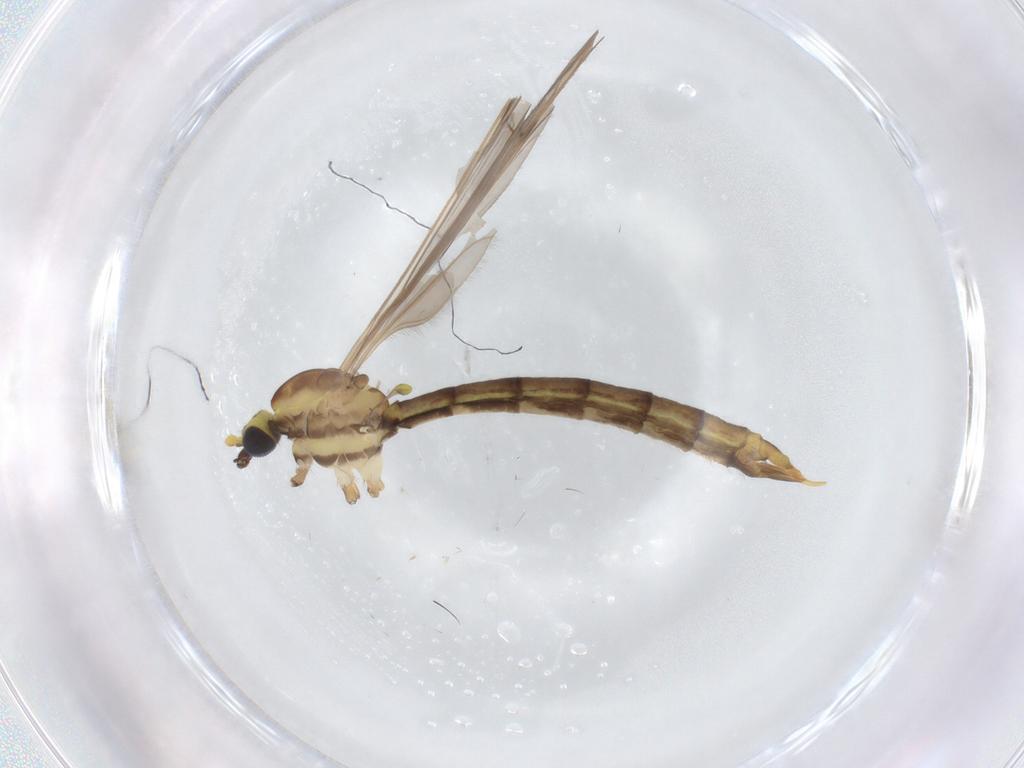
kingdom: Animalia
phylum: Arthropoda
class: Insecta
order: Diptera
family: Dolichopodidae
